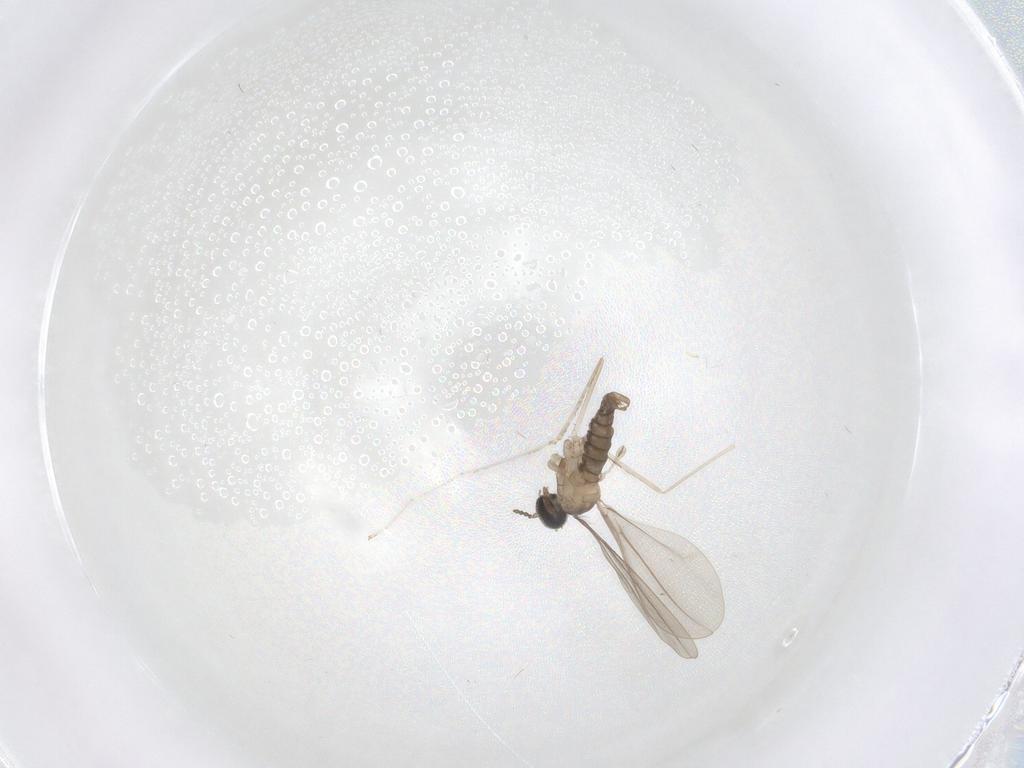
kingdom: Animalia
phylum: Arthropoda
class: Insecta
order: Diptera
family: Cecidomyiidae
